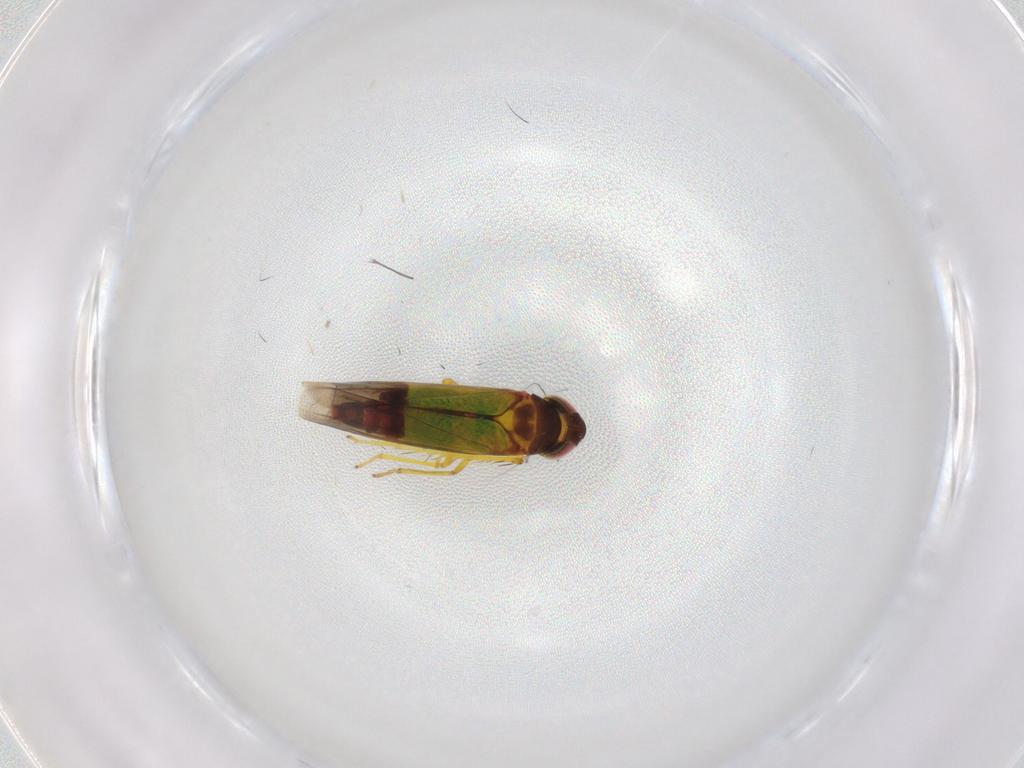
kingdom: Animalia
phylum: Arthropoda
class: Insecta
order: Hemiptera
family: Cicadellidae
